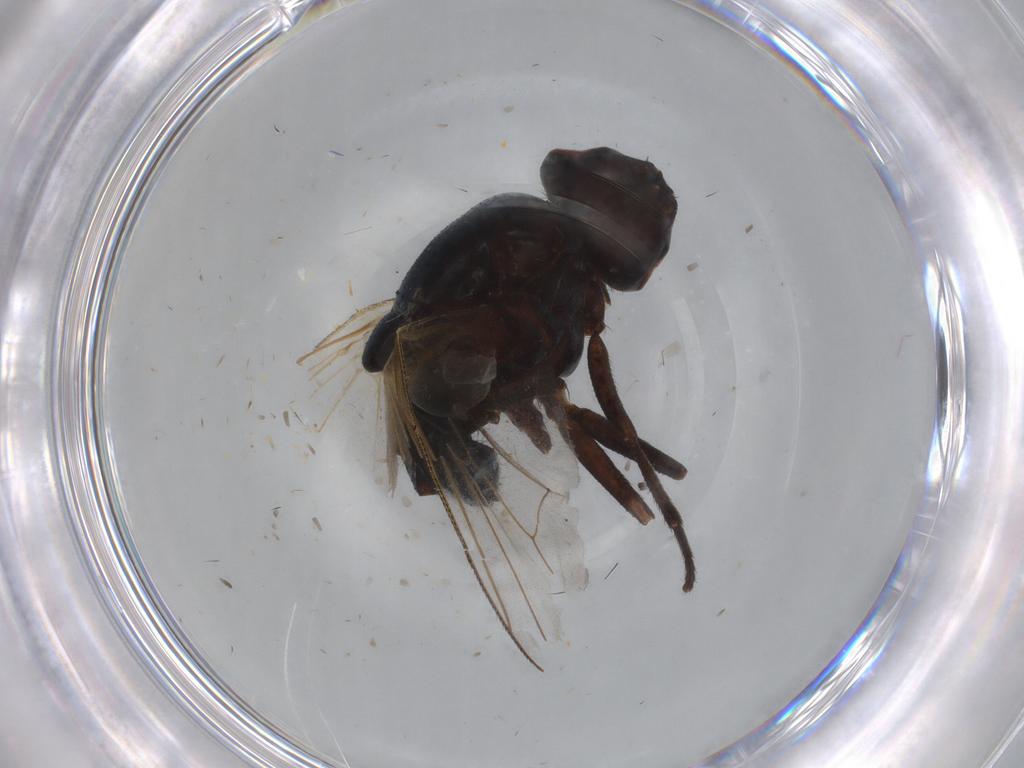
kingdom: Animalia
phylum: Arthropoda
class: Insecta
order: Diptera
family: Muscidae
